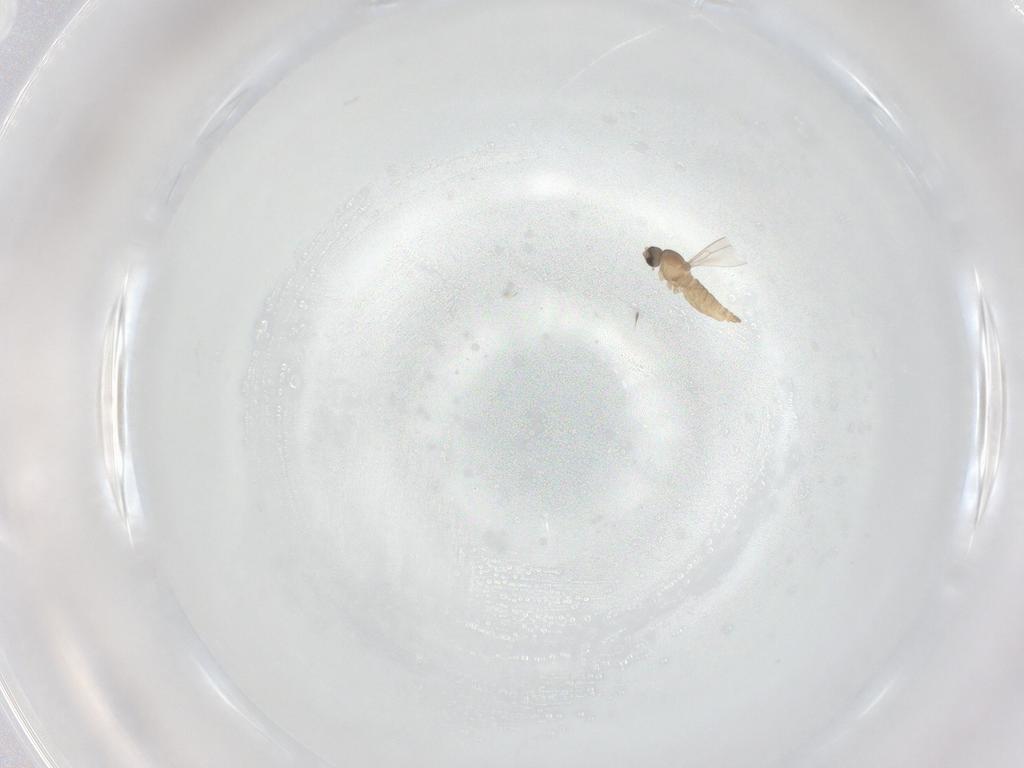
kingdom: Animalia
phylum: Arthropoda
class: Insecta
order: Diptera
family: Cecidomyiidae
